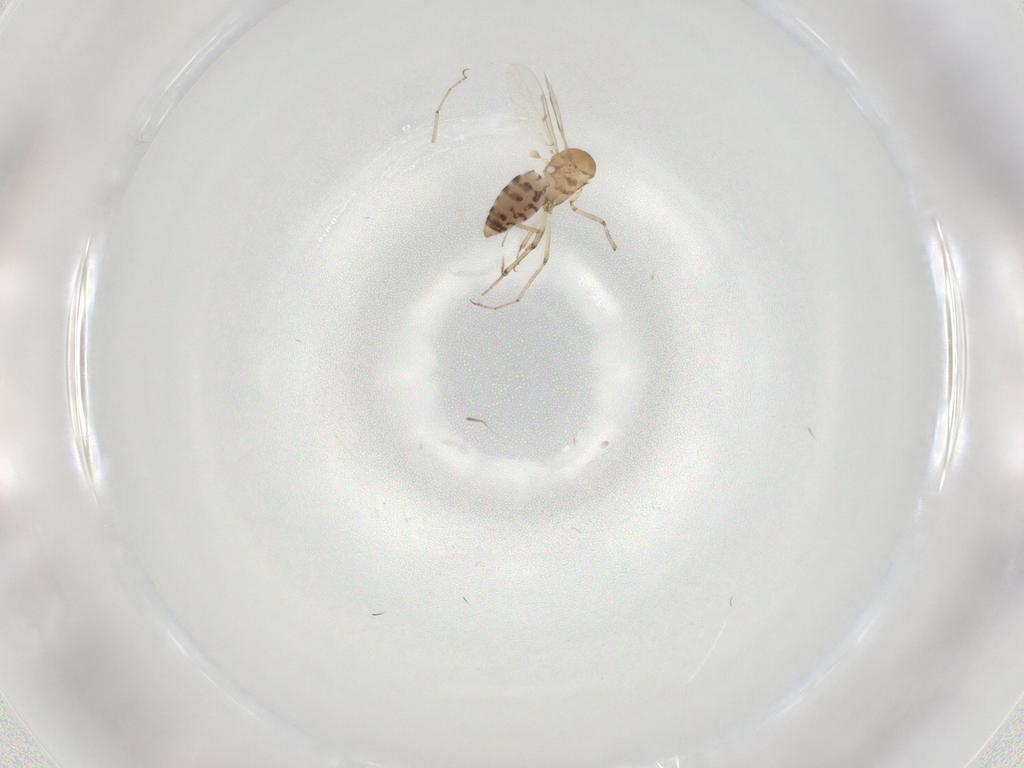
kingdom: Animalia
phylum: Arthropoda
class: Insecta
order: Diptera
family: Ceratopogonidae
